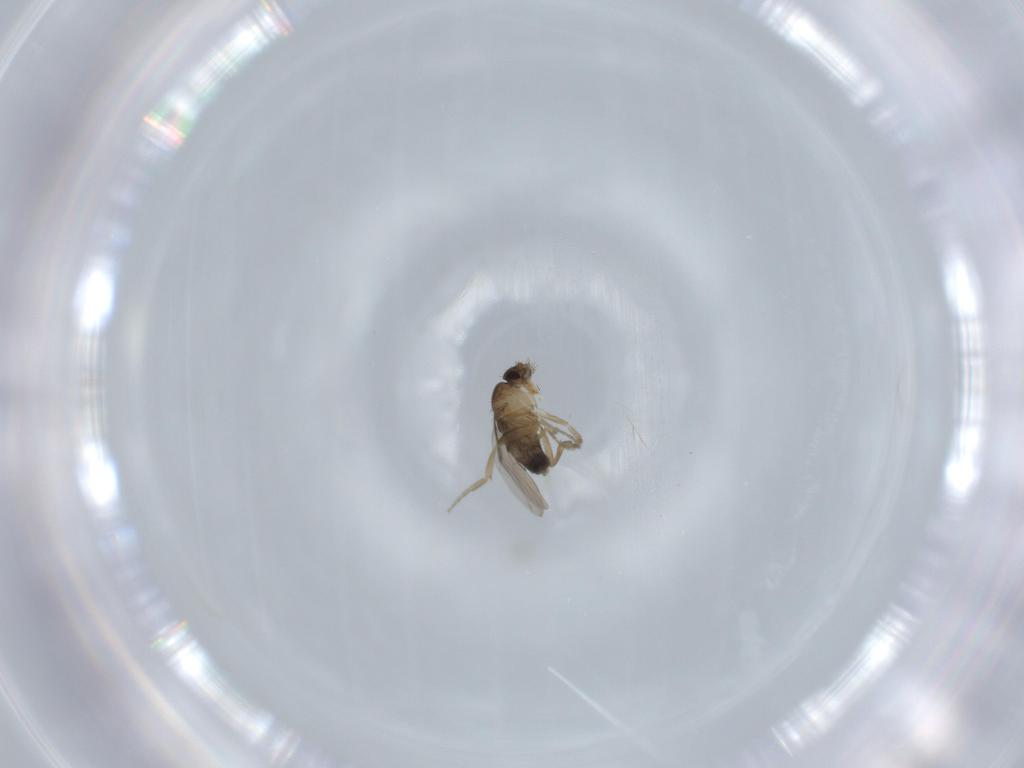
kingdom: Animalia
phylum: Arthropoda
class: Insecta
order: Diptera
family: Phoridae
